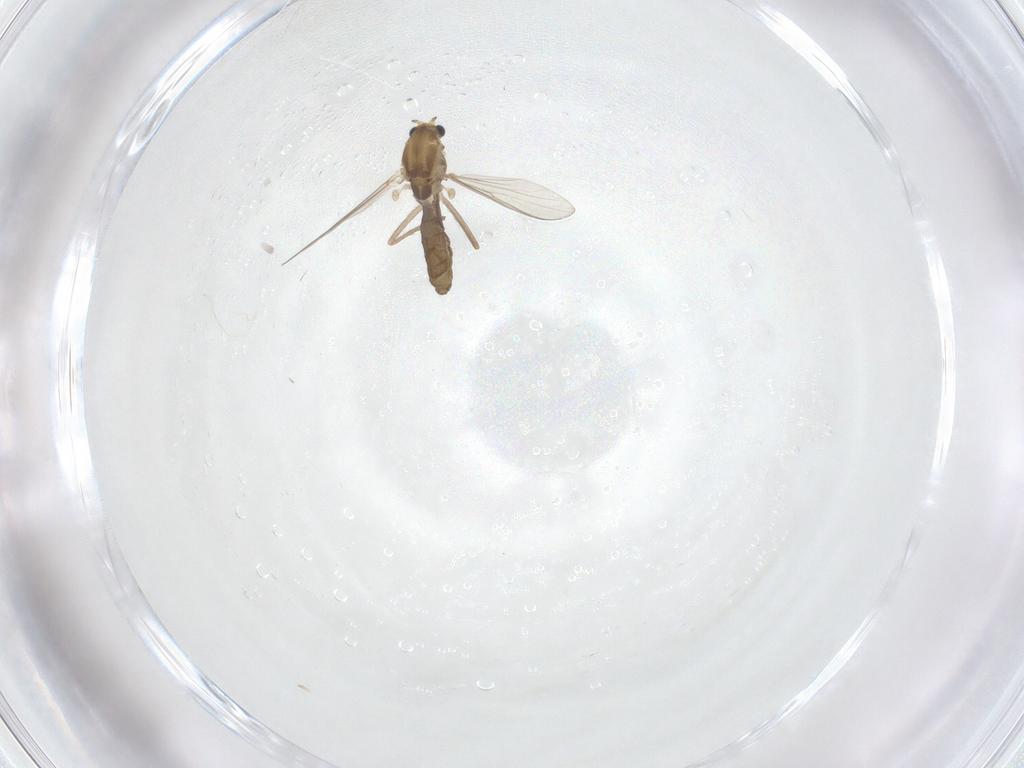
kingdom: Animalia
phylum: Arthropoda
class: Insecta
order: Diptera
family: Chironomidae
